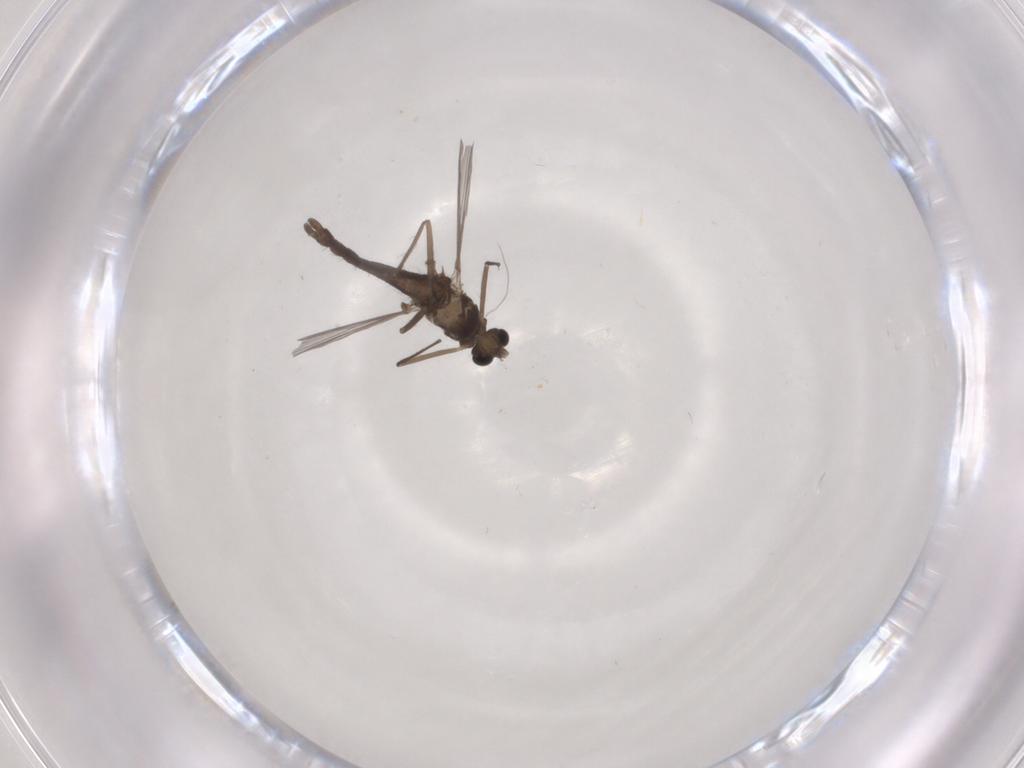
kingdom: Animalia
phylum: Arthropoda
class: Insecta
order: Diptera
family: Chironomidae
